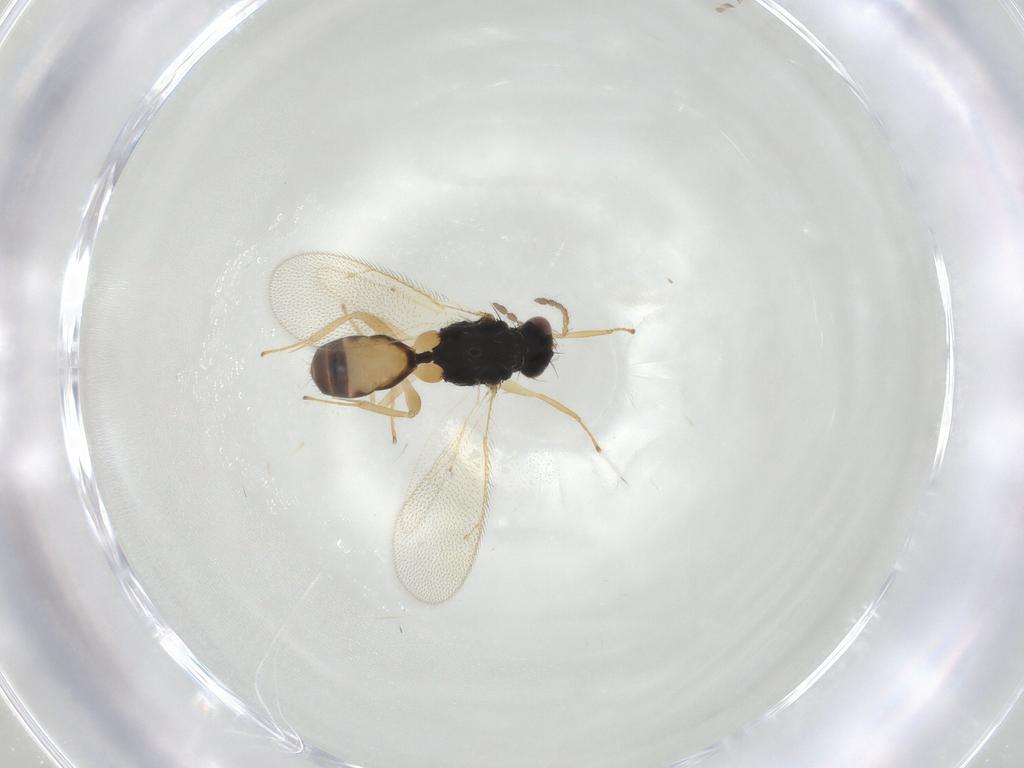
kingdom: Animalia
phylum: Arthropoda
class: Insecta
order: Hymenoptera
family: Eulophidae
